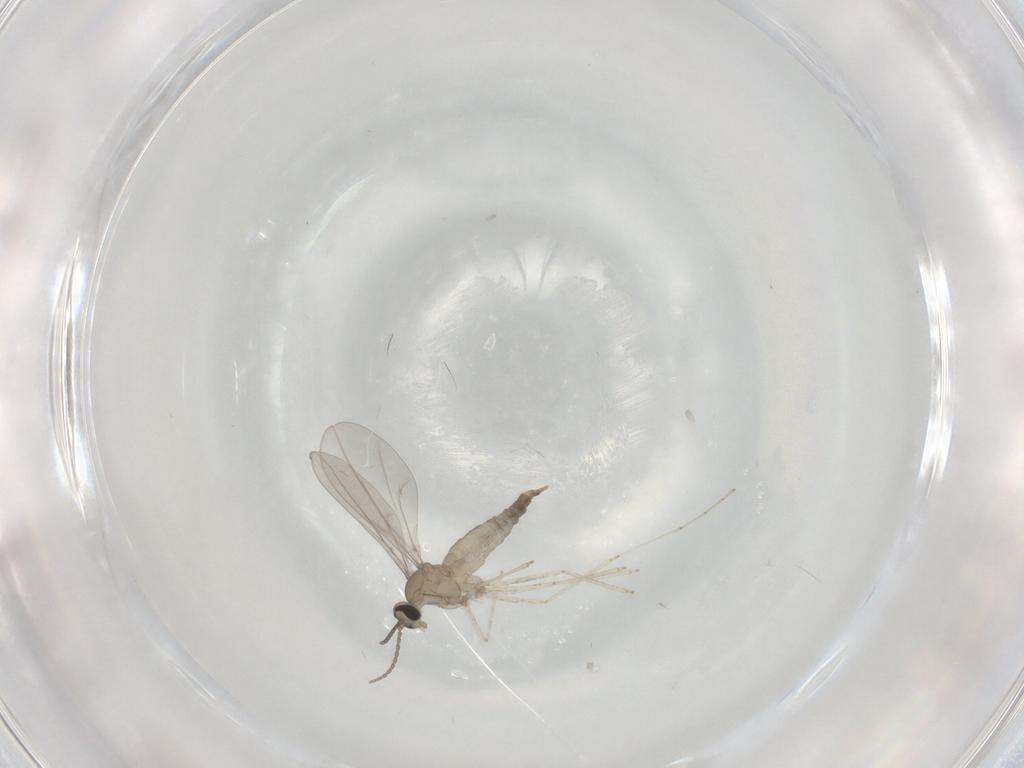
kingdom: Animalia
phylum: Arthropoda
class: Insecta
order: Diptera
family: Cecidomyiidae
